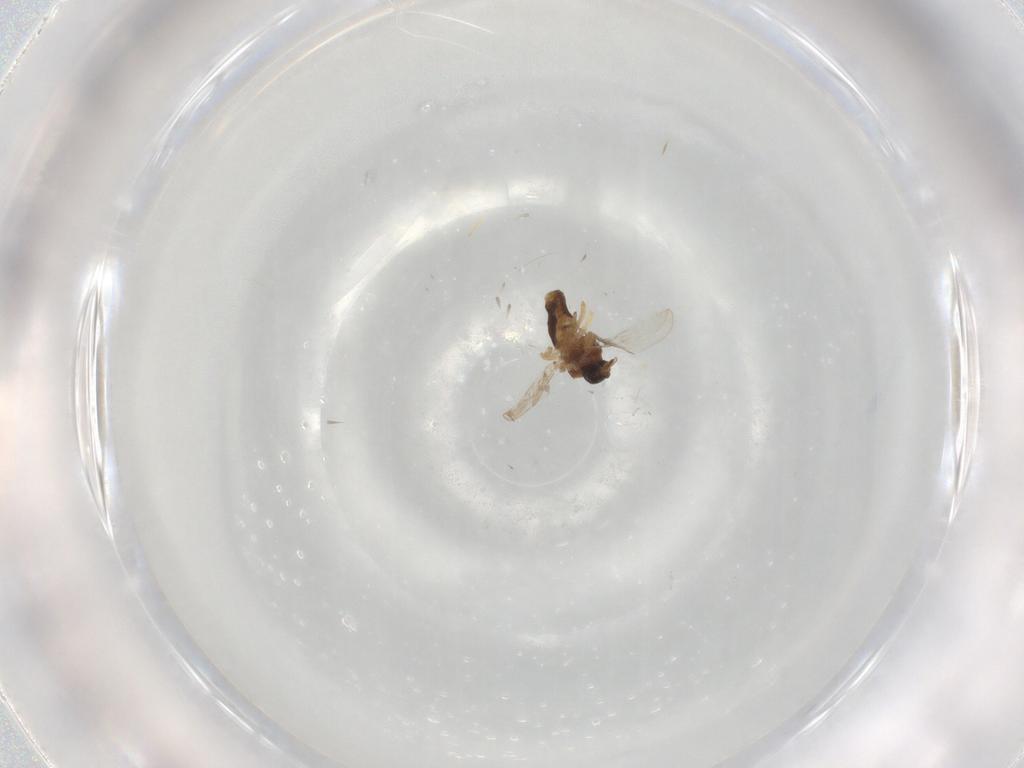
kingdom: Animalia
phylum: Arthropoda
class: Insecta
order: Diptera
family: Ceratopogonidae
